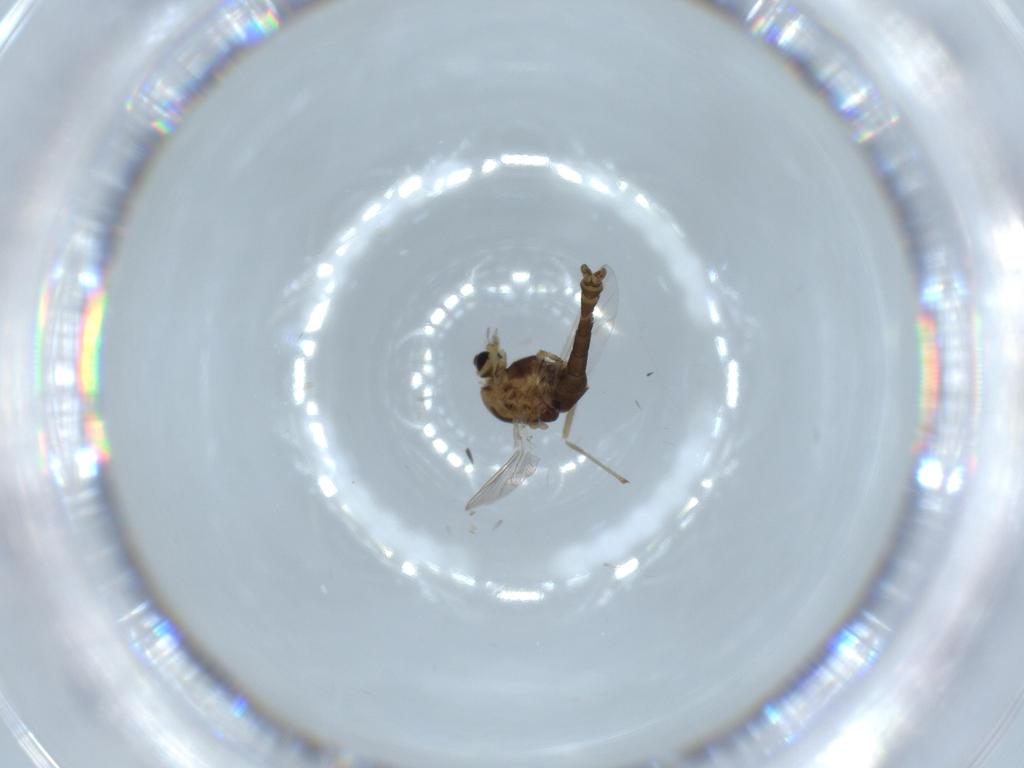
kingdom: Animalia
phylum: Arthropoda
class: Insecta
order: Diptera
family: Chironomidae
